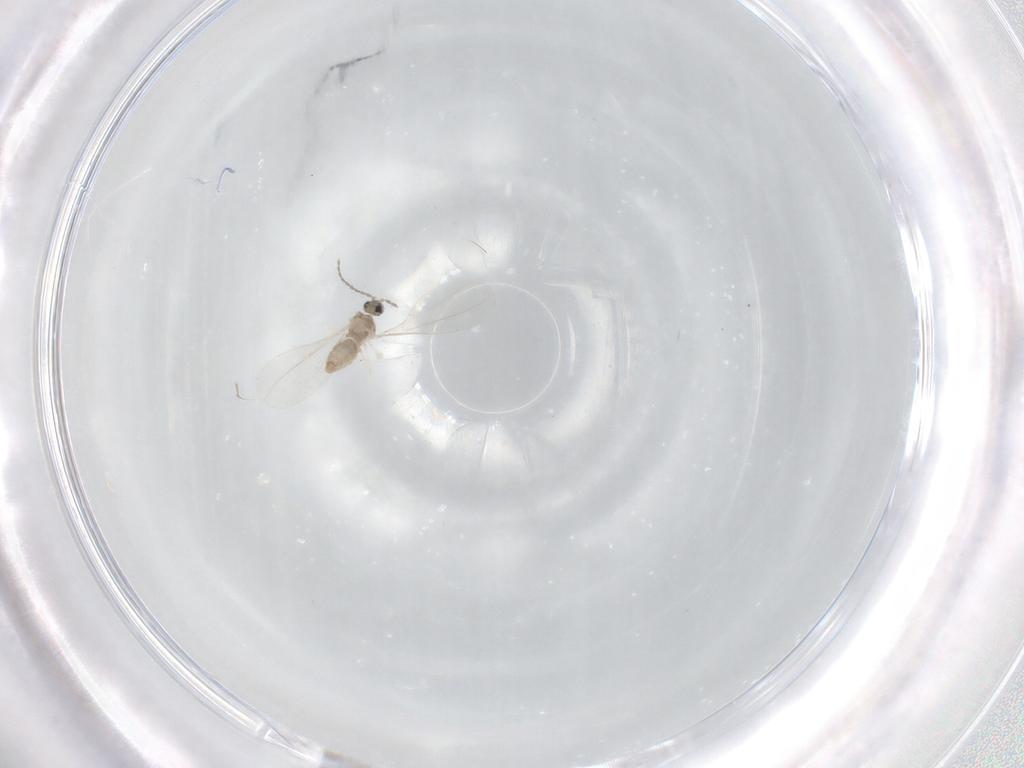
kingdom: Animalia
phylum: Arthropoda
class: Insecta
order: Diptera
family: Cecidomyiidae
